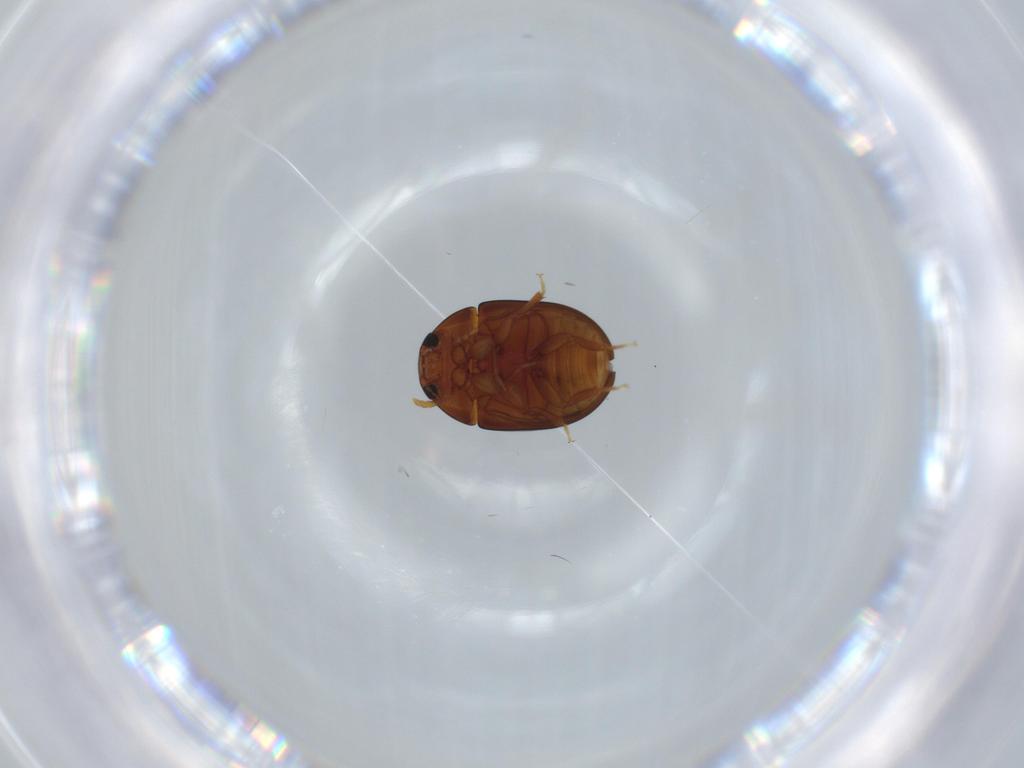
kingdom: Animalia
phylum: Arthropoda
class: Insecta
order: Coleoptera
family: Phalacridae
